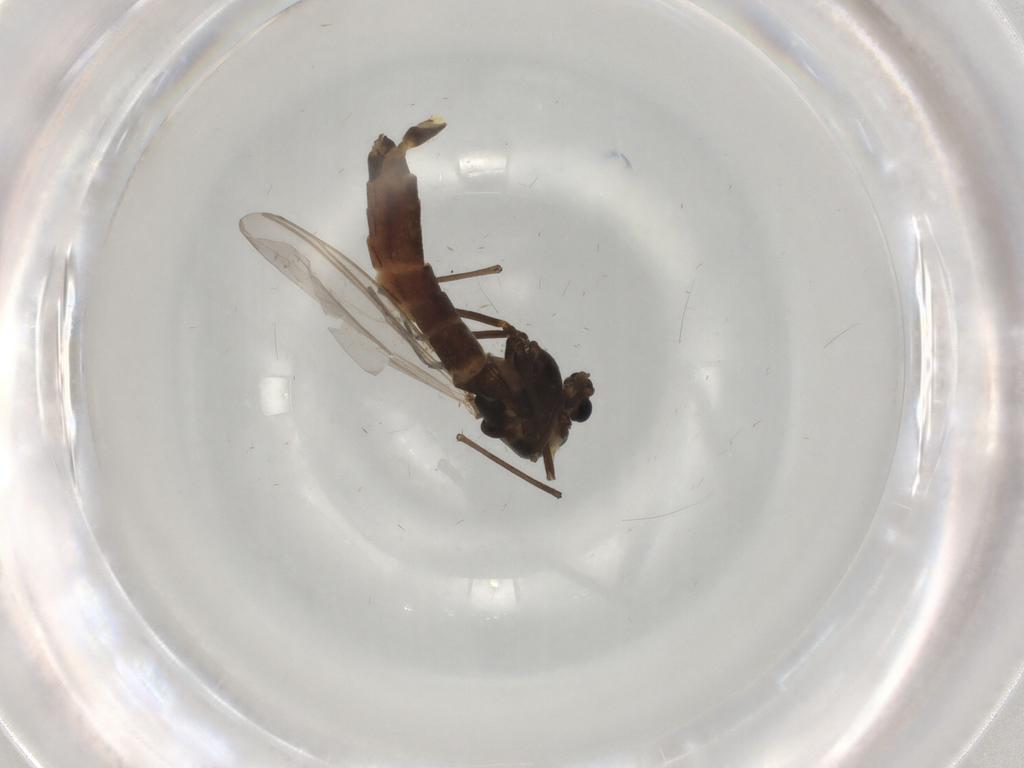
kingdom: Animalia
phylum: Arthropoda
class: Insecta
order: Diptera
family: Chironomidae
